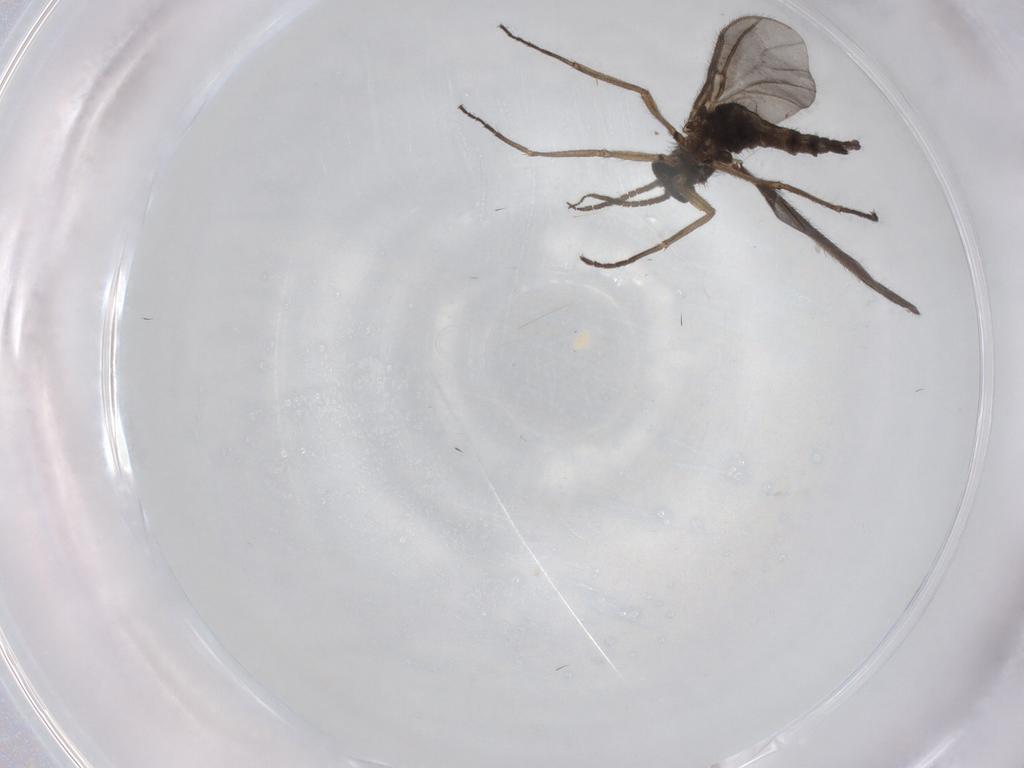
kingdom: Animalia
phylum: Arthropoda
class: Insecta
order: Diptera
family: Sciaridae
